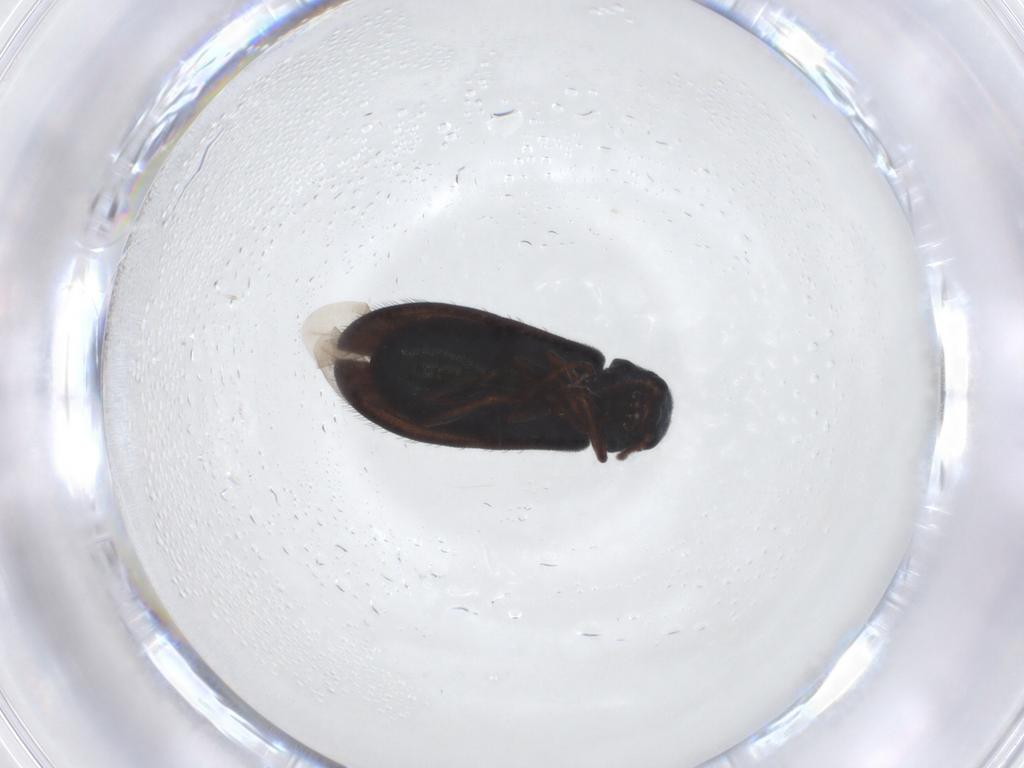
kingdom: Animalia
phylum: Arthropoda
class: Insecta
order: Coleoptera
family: Melyridae
